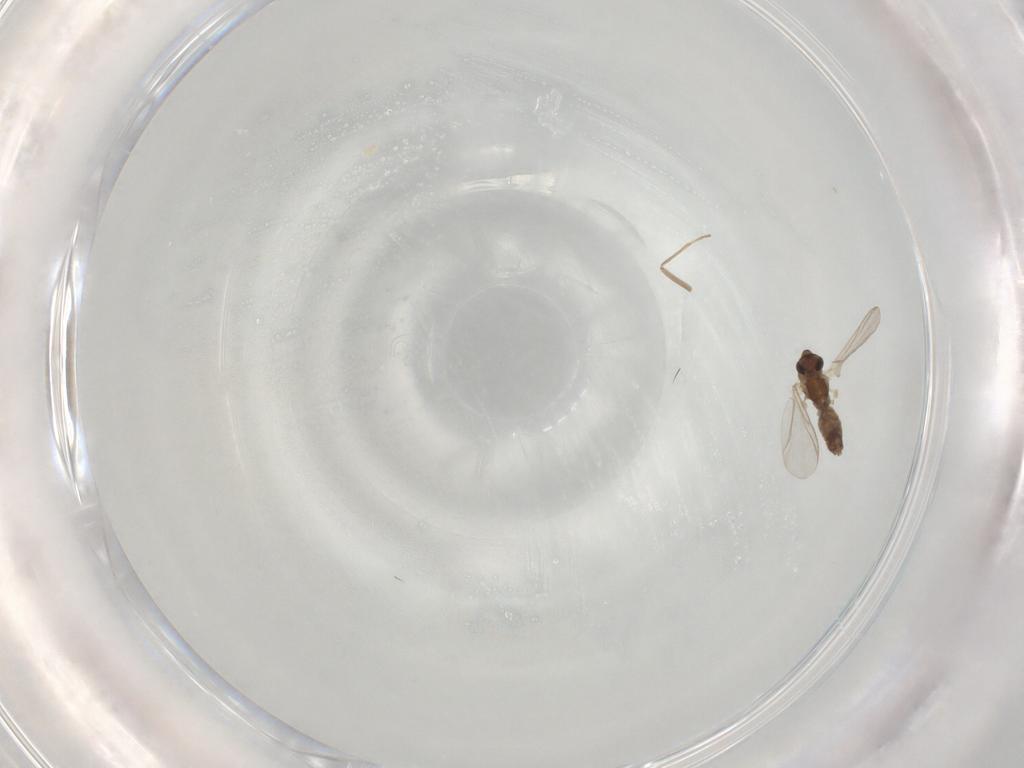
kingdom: Animalia
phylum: Arthropoda
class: Insecta
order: Diptera
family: Chironomidae
